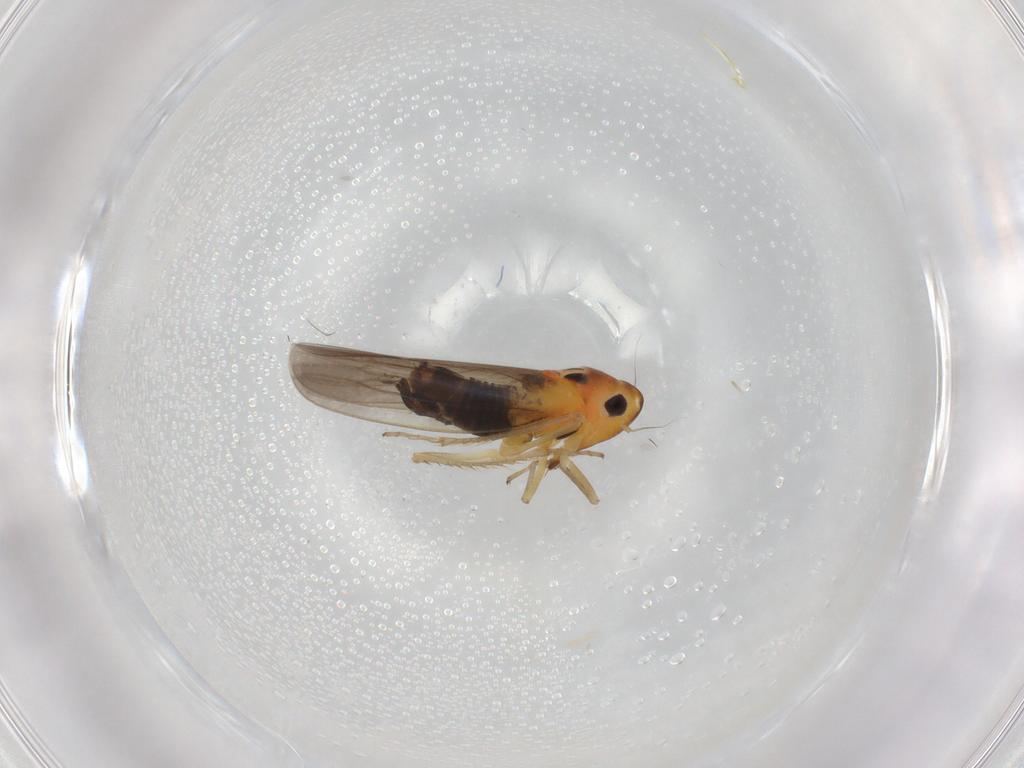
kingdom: Animalia
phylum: Arthropoda
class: Insecta
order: Hemiptera
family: Cicadellidae
